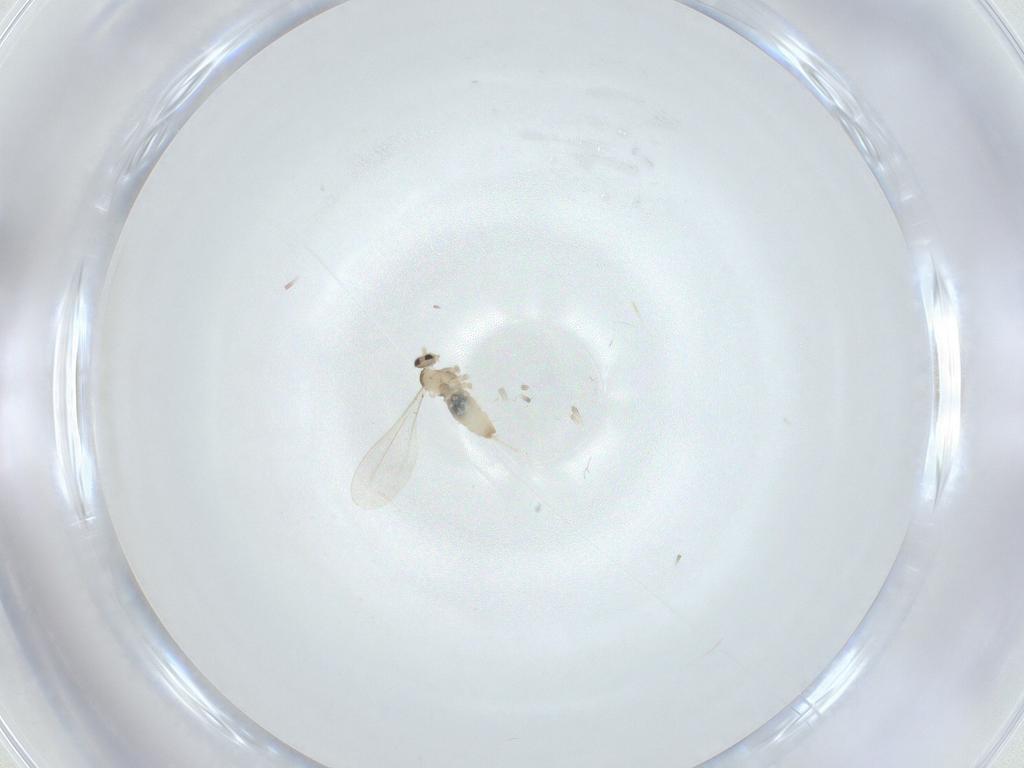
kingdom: Animalia
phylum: Arthropoda
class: Insecta
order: Diptera
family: Cecidomyiidae
